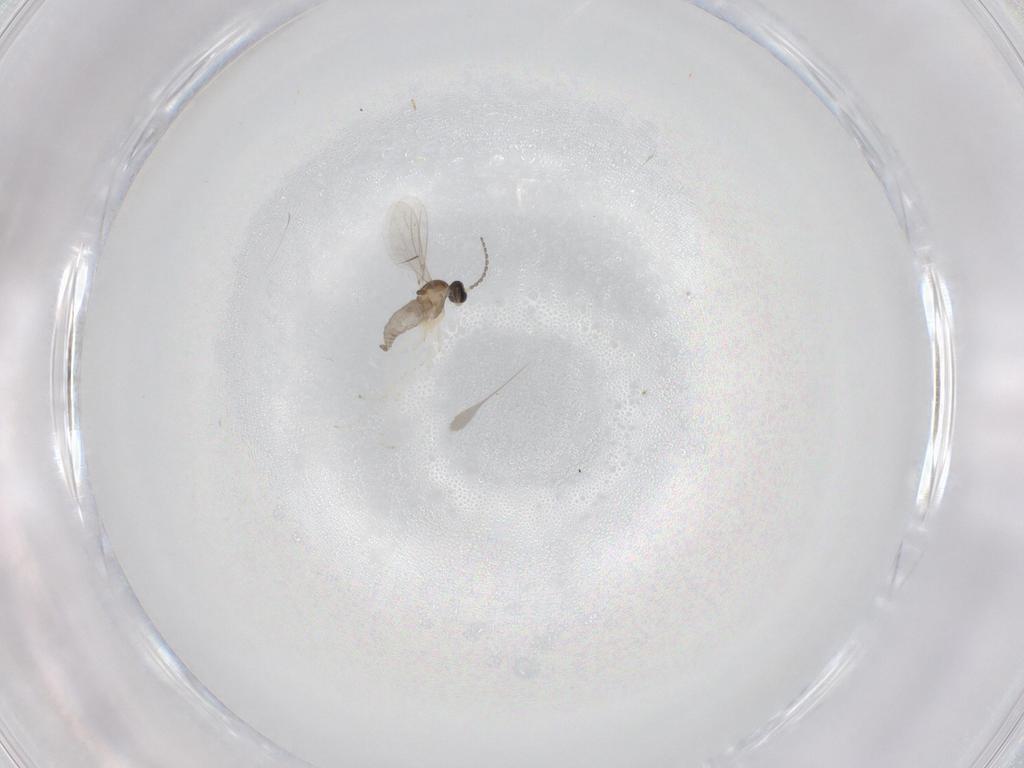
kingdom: Animalia
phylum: Arthropoda
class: Insecta
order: Diptera
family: Cecidomyiidae
